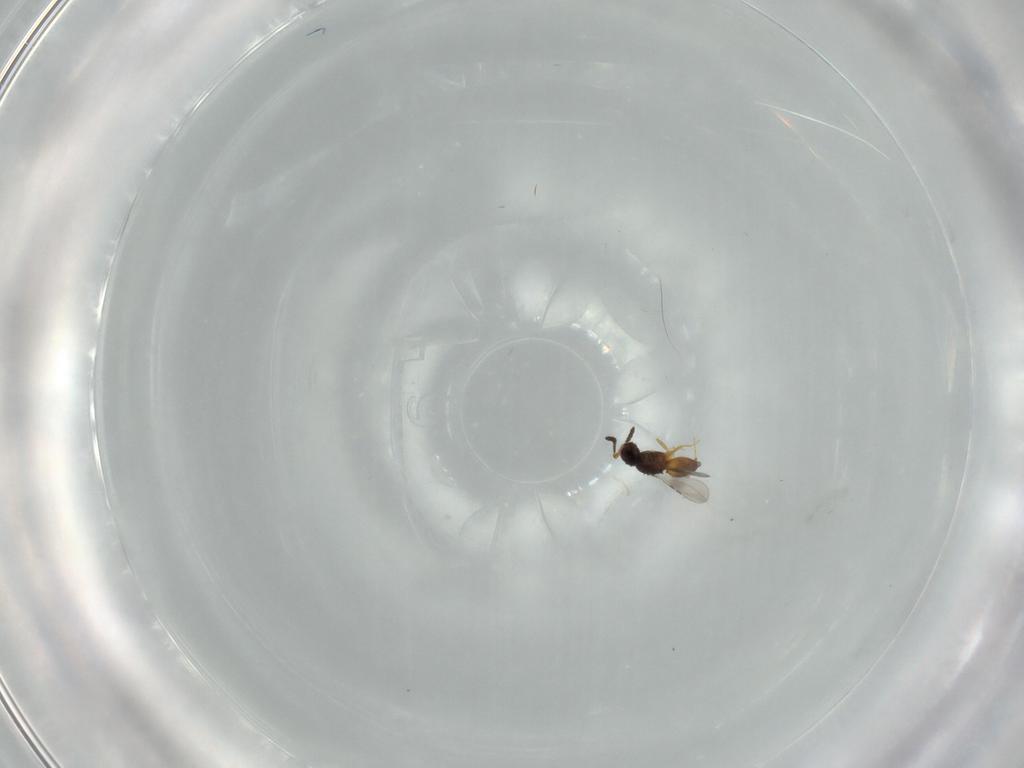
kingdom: Animalia
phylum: Arthropoda
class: Insecta
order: Hymenoptera
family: Ceraphronidae
